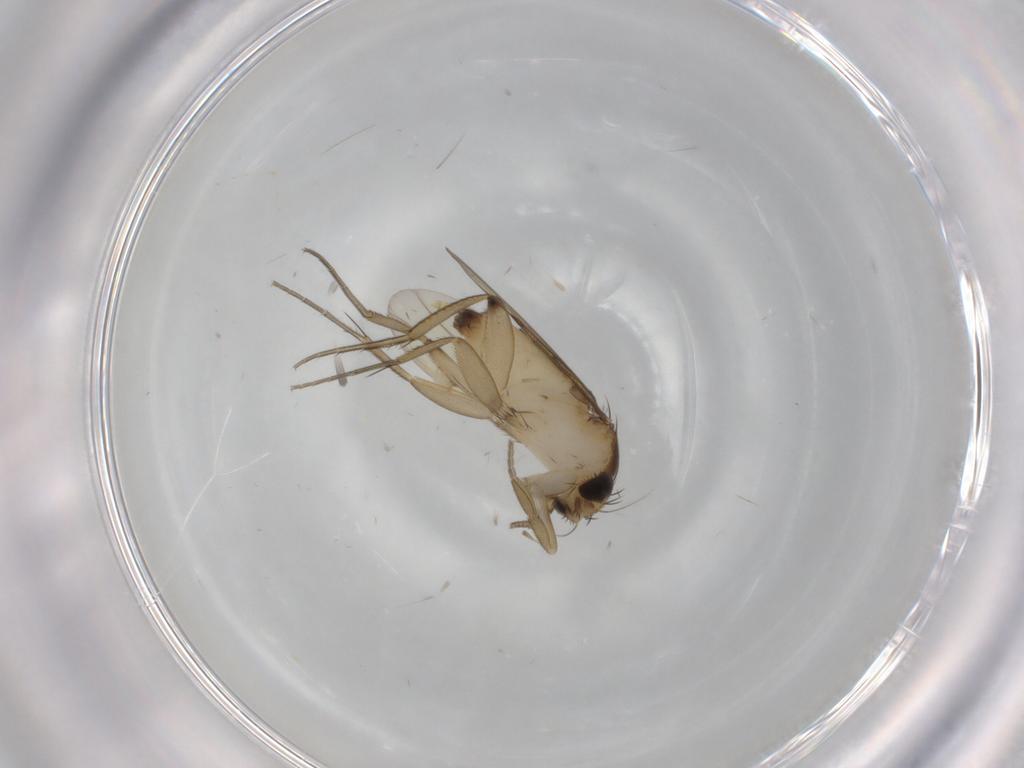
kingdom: Animalia
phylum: Arthropoda
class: Insecta
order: Diptera
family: Phoridae
